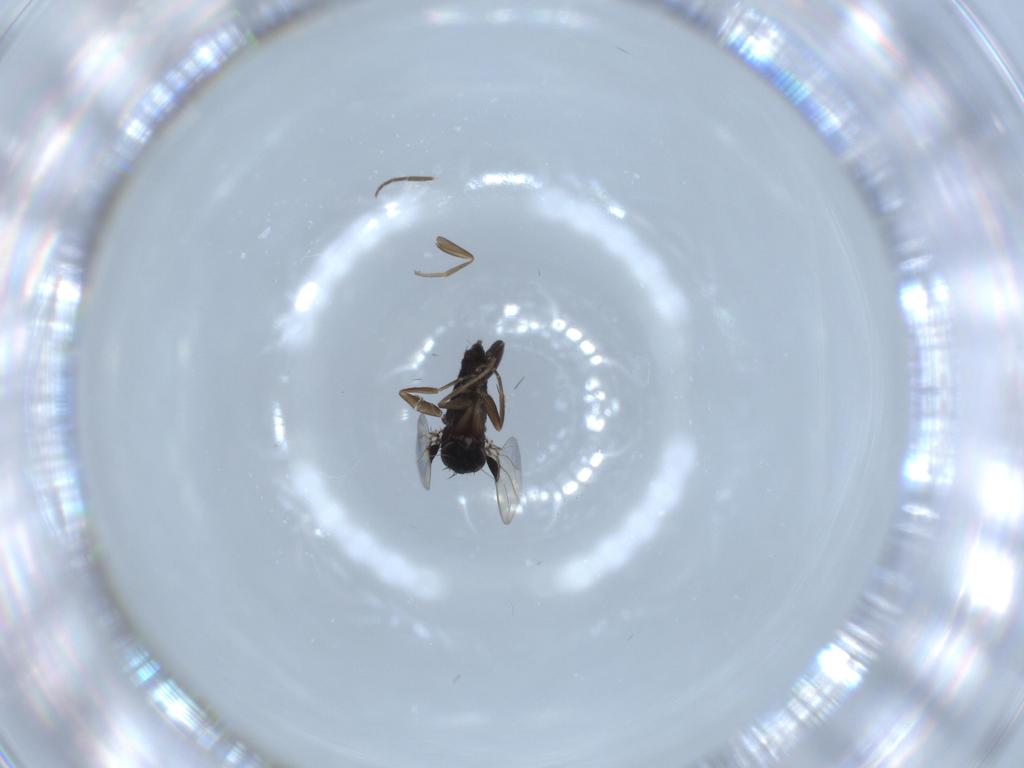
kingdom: Animalia
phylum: Arthropoda
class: Insecta
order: Diptera
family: Phoridae
